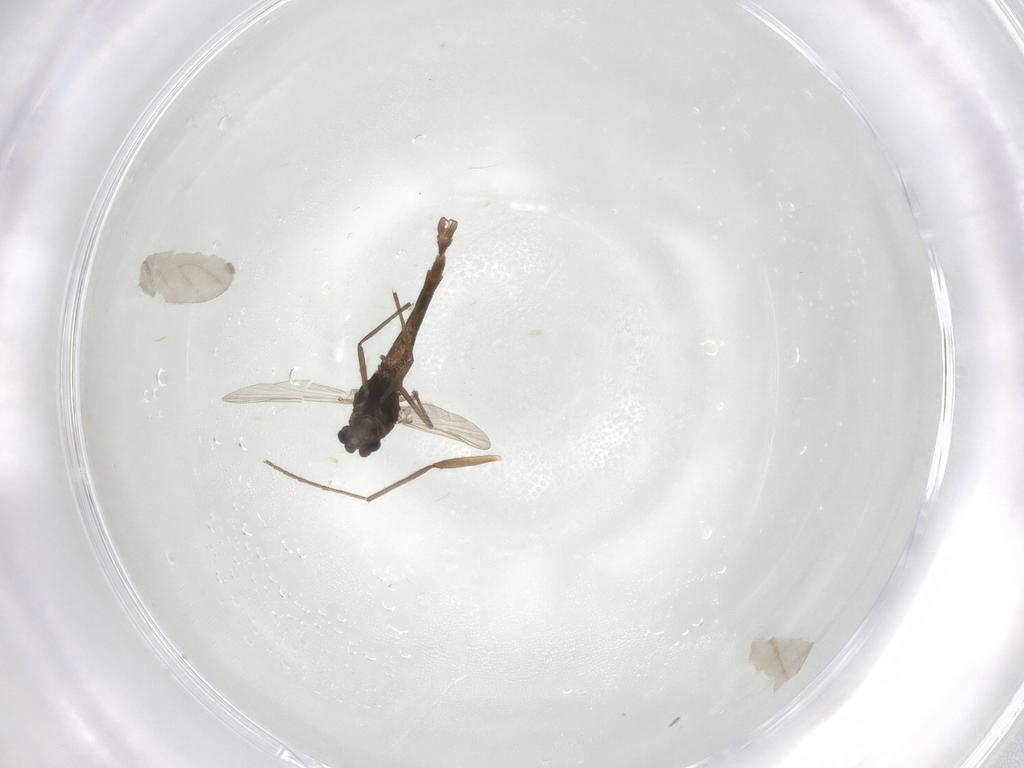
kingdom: Animalia
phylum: Arthropoda
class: Insecta
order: Diptera
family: Chironomidae
